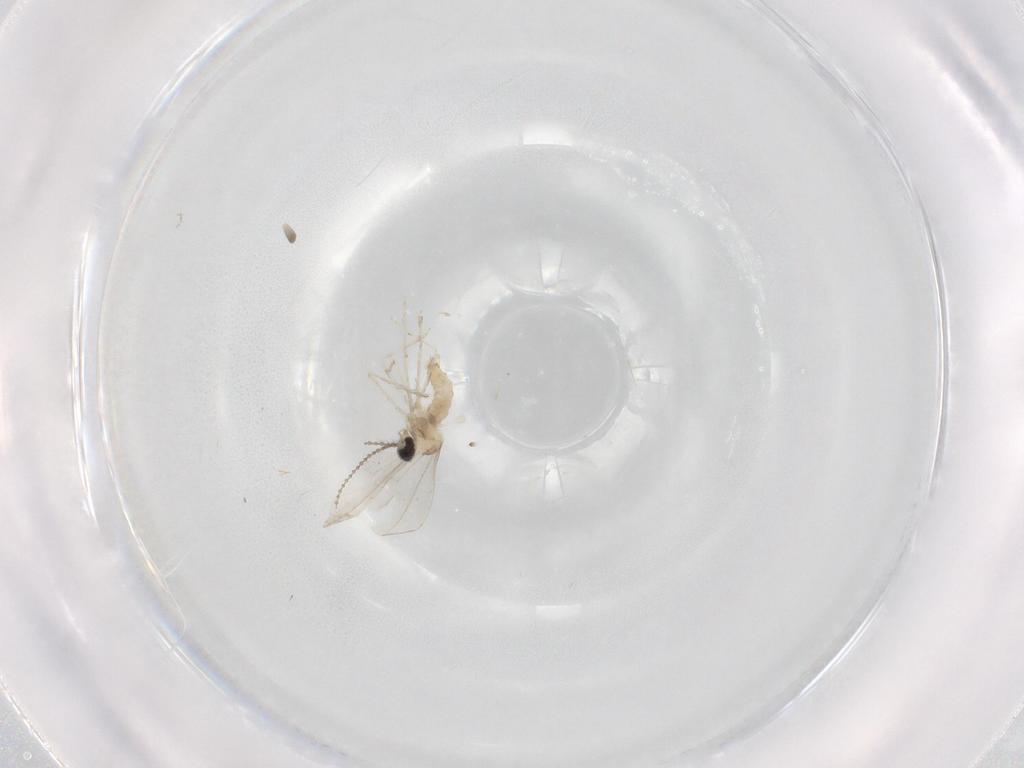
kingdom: Animalia
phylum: Arthropoda
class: Insecta
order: Diptera
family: Cecidomyiidae
